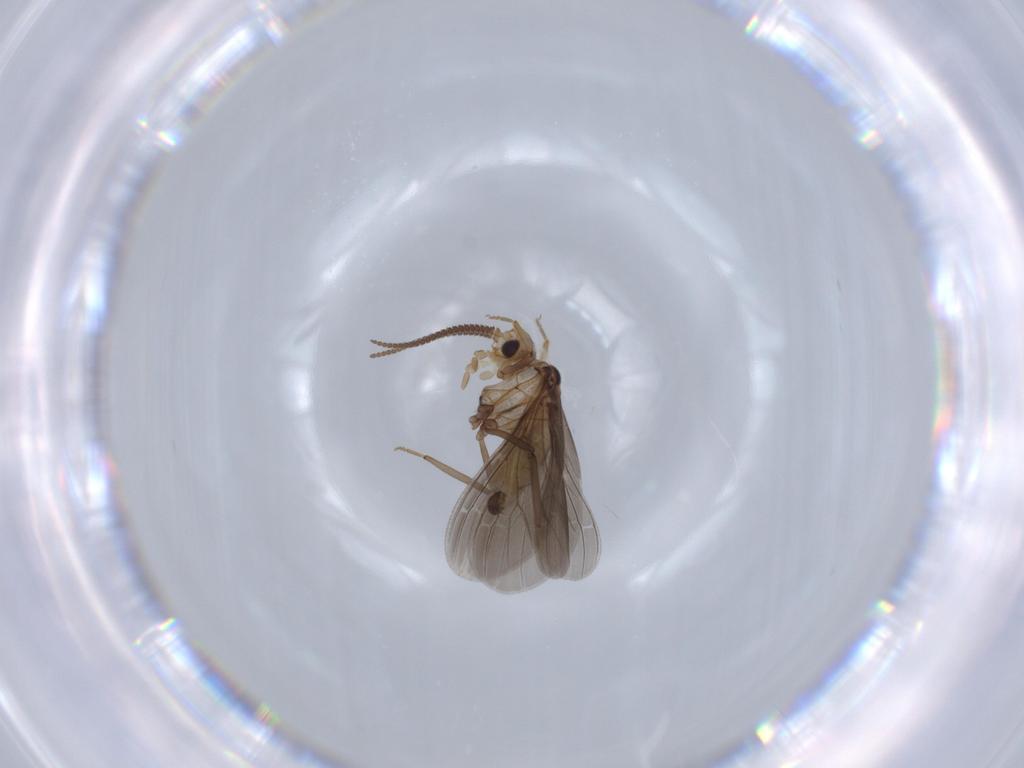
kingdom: Animalia
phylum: Arthropoda
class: Insecta
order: Neuroptera
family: Coniopterygidae
